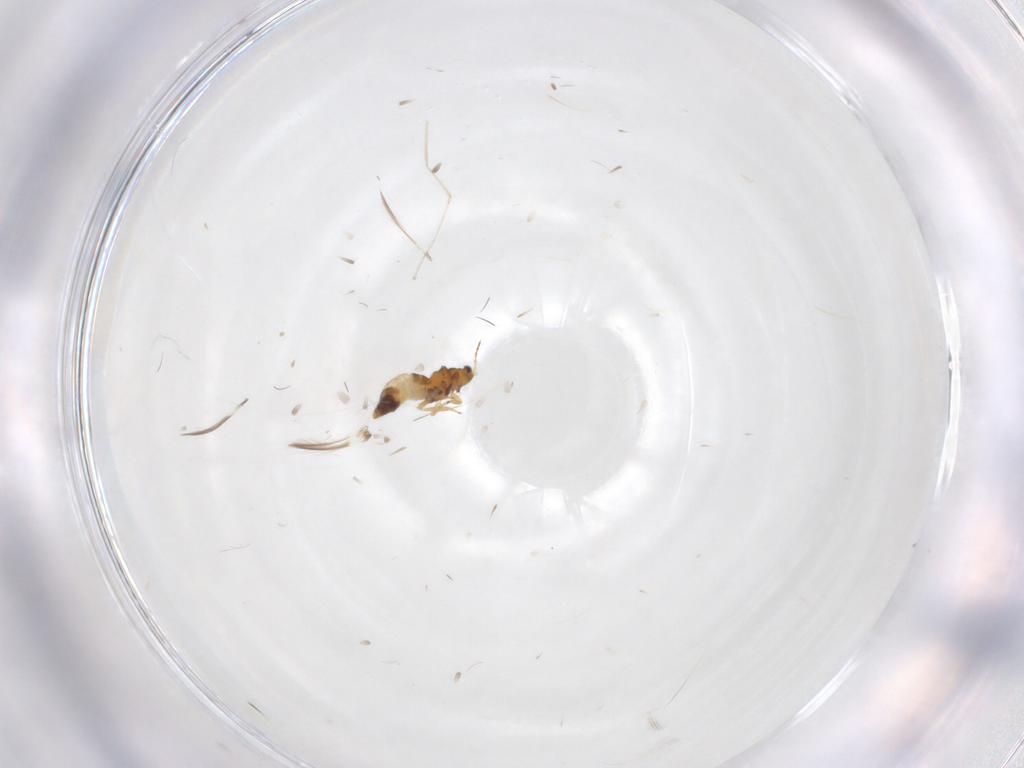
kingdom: Animalia
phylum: Arthropoda
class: Insecta
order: Thysanoptera
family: Thripidae
